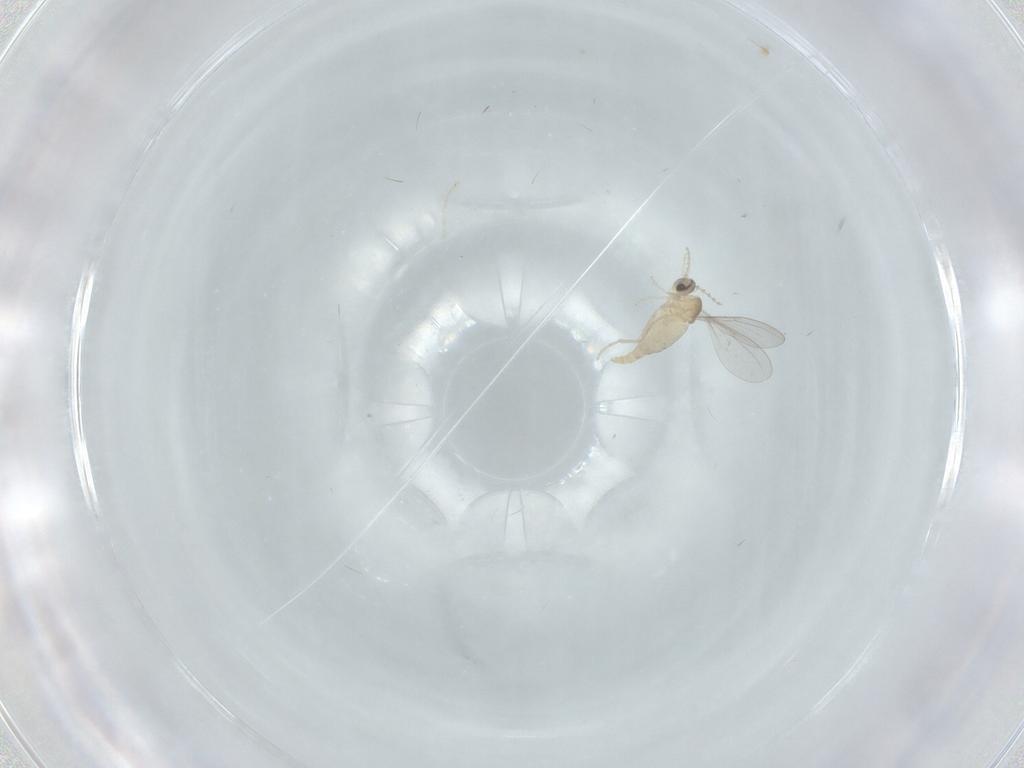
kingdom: Animalia
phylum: Arthropoda
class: Insecta
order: Diptera
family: Cecidomyiidae
